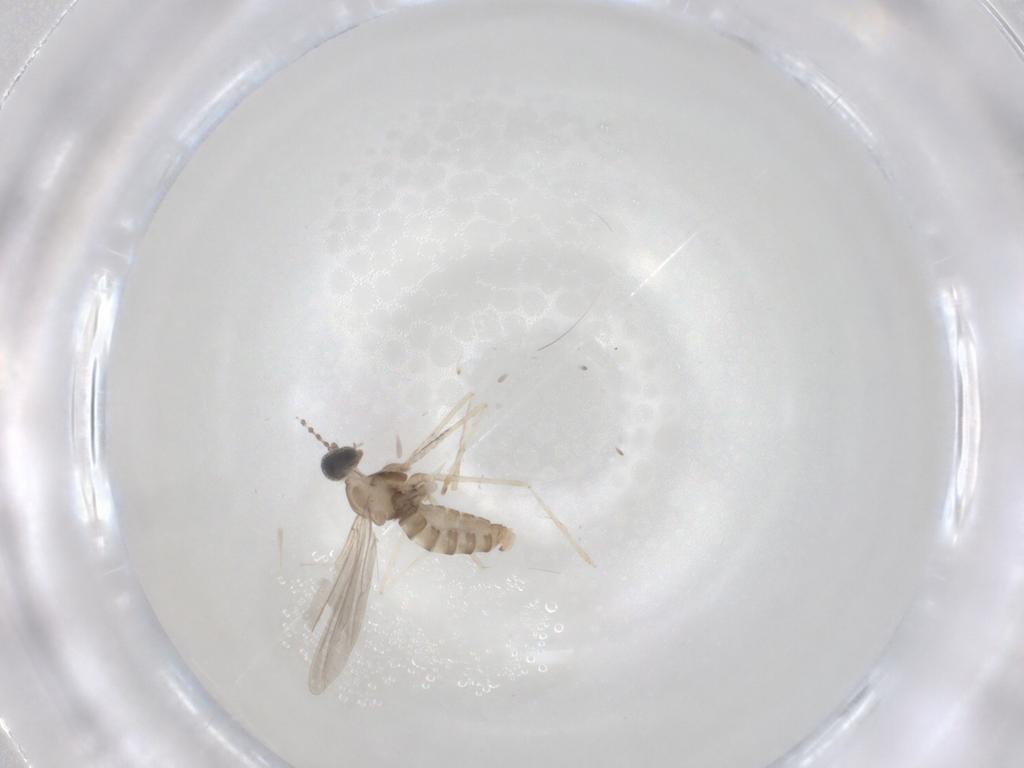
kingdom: Animalia
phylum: Arthropoda
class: Insecta
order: Diptera
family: Cecidomyiidae
